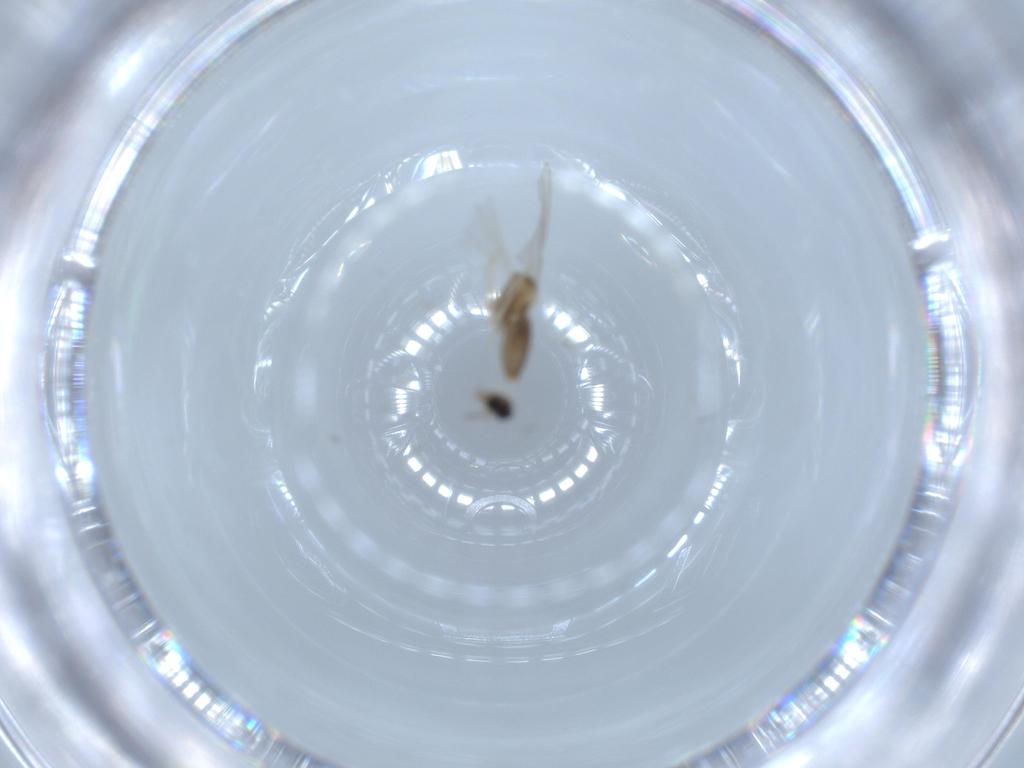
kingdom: Animalia
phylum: Arthropoda
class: Insecta
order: Diptera
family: Cecidomyiidae
